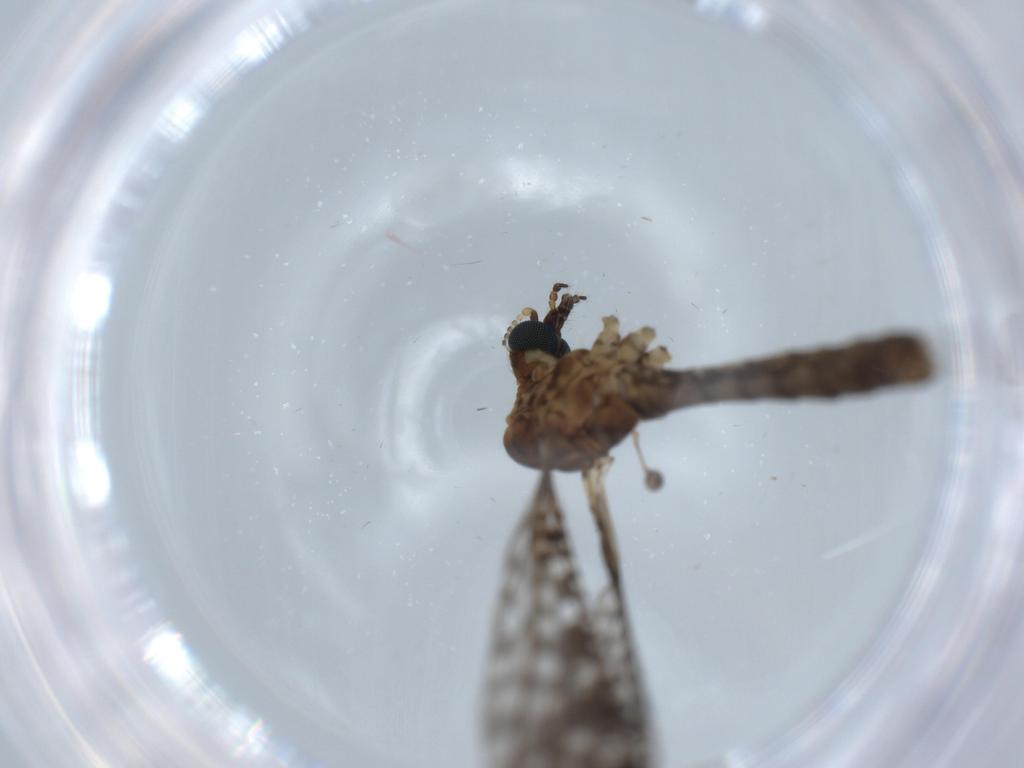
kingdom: Animalia
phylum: Arthropoda
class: Insecta
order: Diptera
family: Limoniidae
